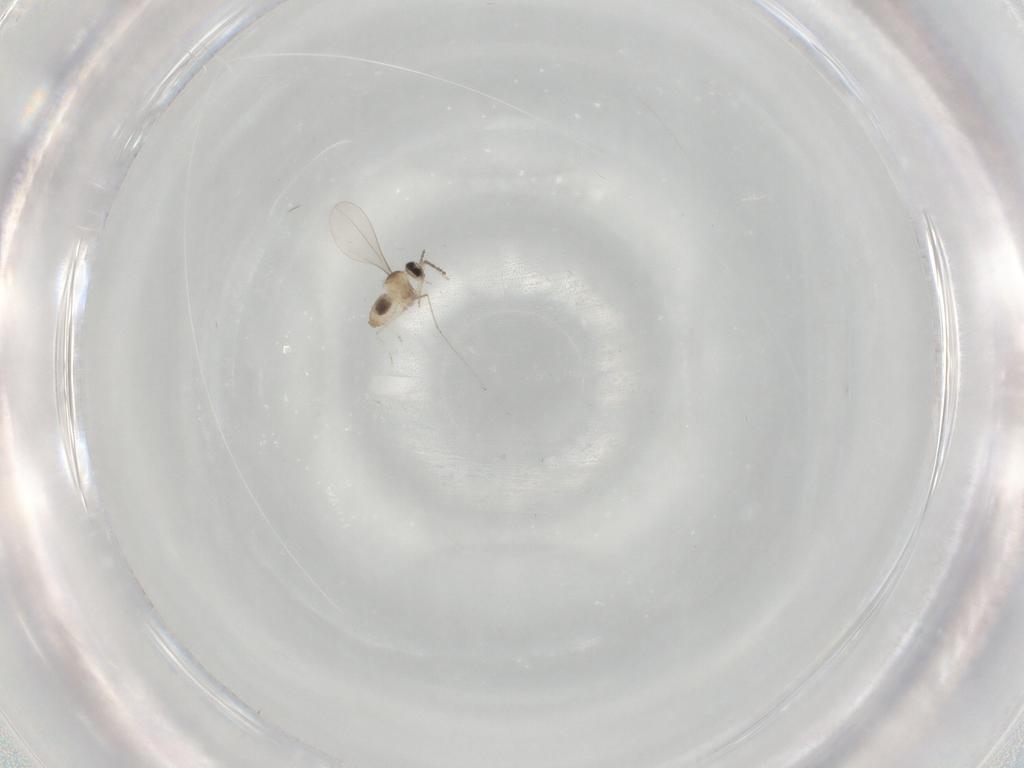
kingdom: Animalia
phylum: Arthropoda
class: Insecta
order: Diptera
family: Cecidomyiidae
